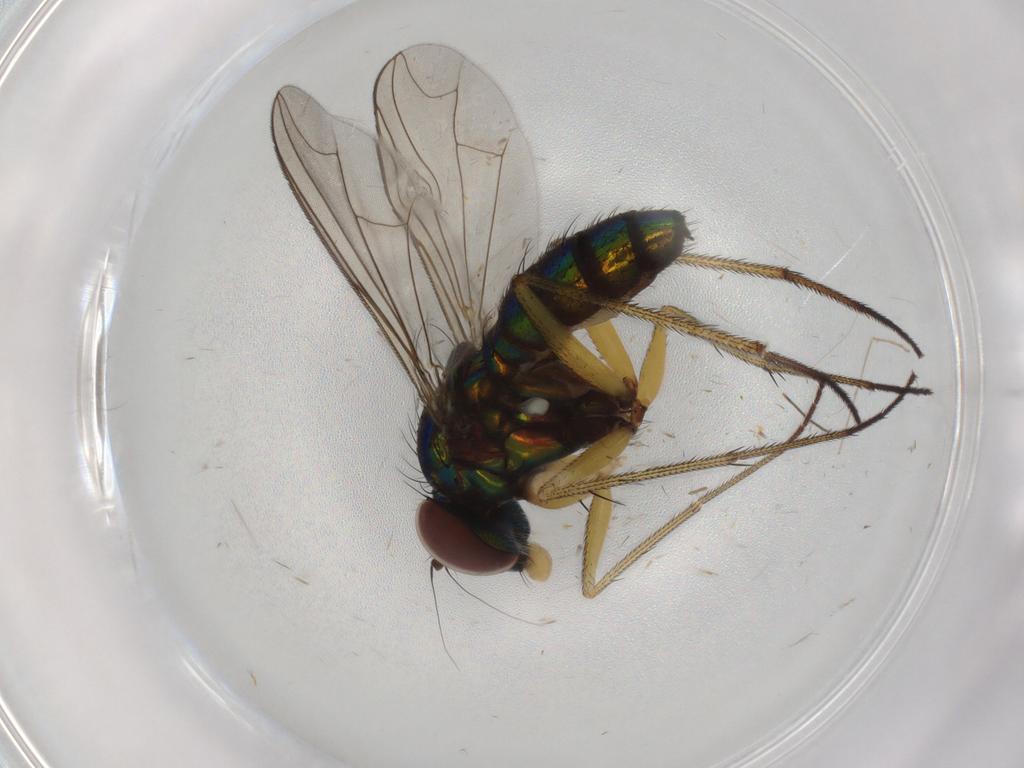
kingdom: Animalia
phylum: Arthropoda
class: Insecta
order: Diptera
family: Dolichopodidae
